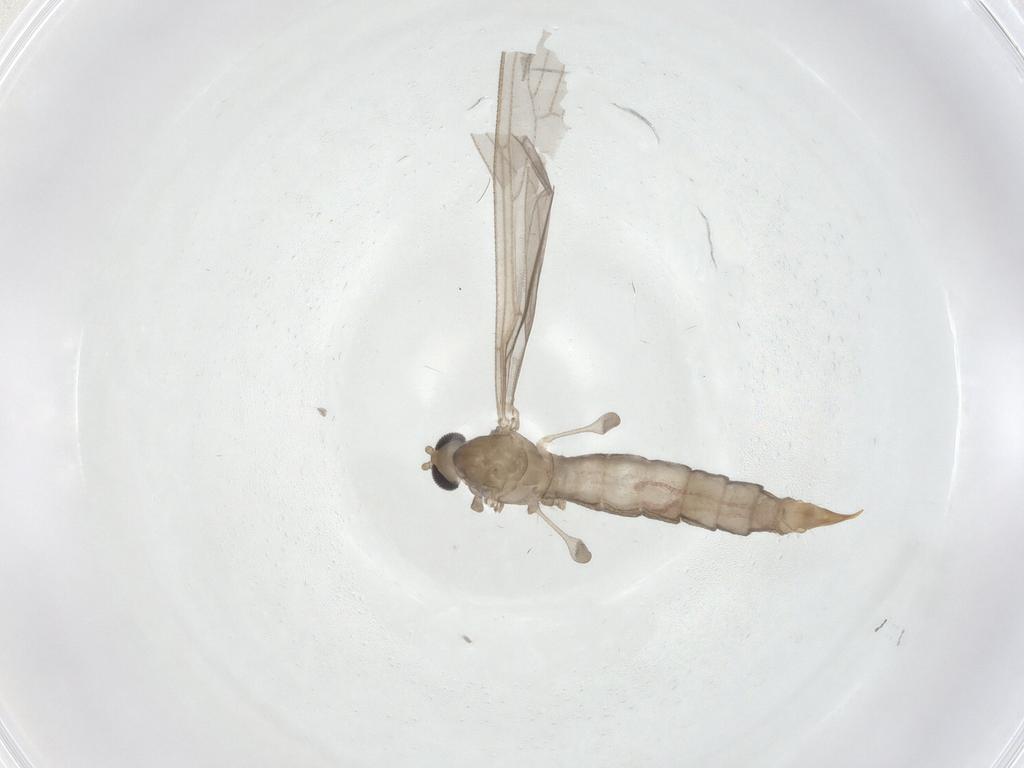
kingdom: Animalia
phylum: Arthropoda
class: Insecta
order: Diptera
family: Limoniidae
